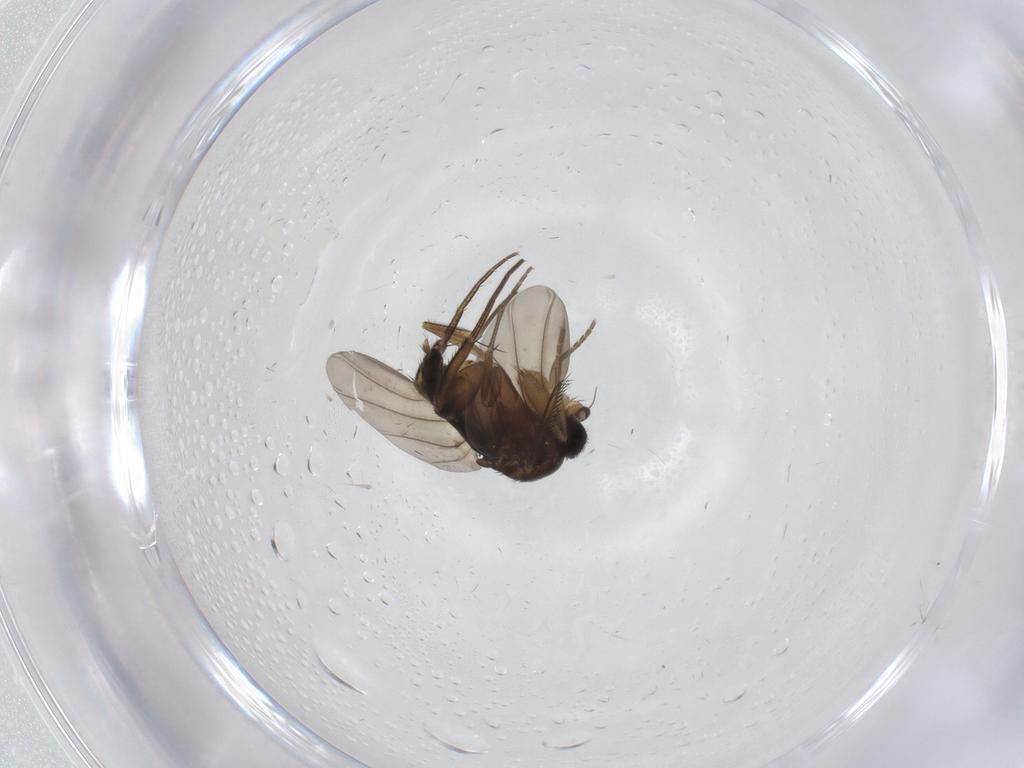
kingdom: Animalia
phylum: Arthropoda
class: Insecta
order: Diptera
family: Phoridae
